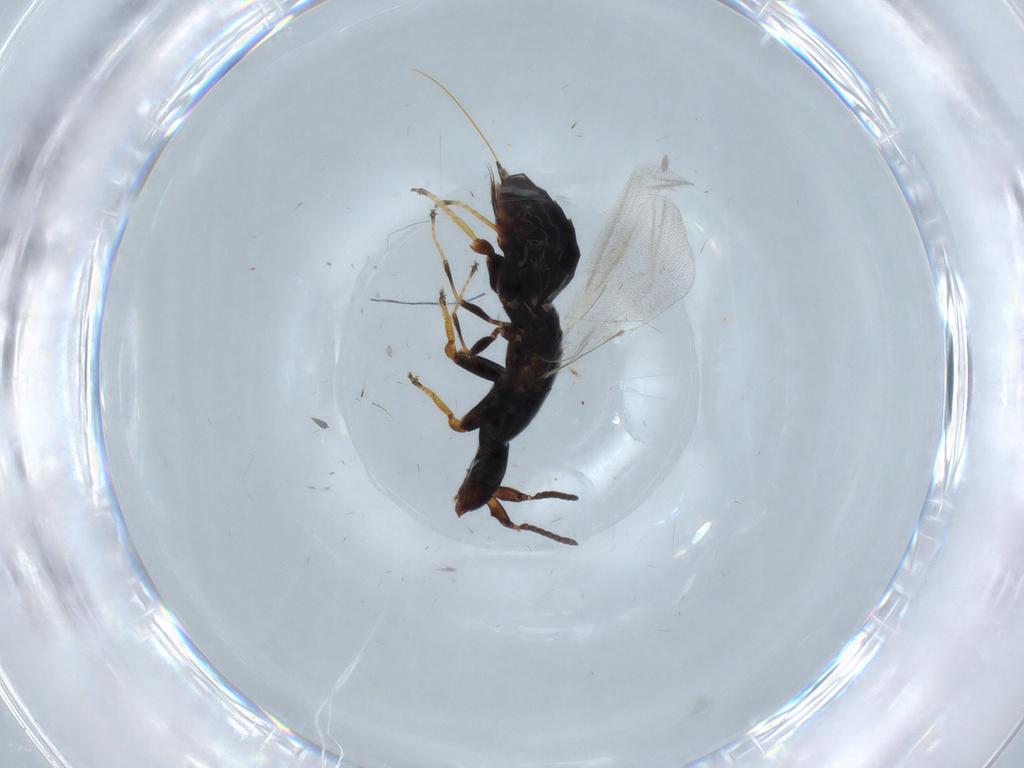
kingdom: Animalia
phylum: Arthropoda
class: Insecta
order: Hymenoptera
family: Agaonidae
